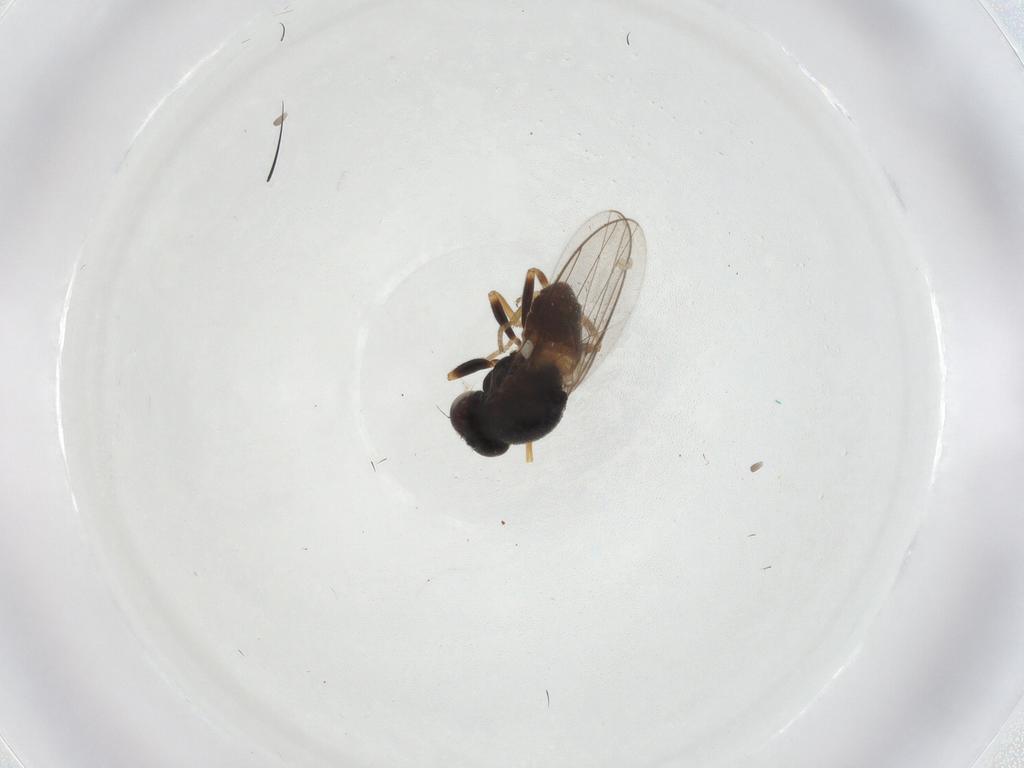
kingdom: Animalia
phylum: Arthropoda
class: Insecta
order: Diptera
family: Chloropidae
